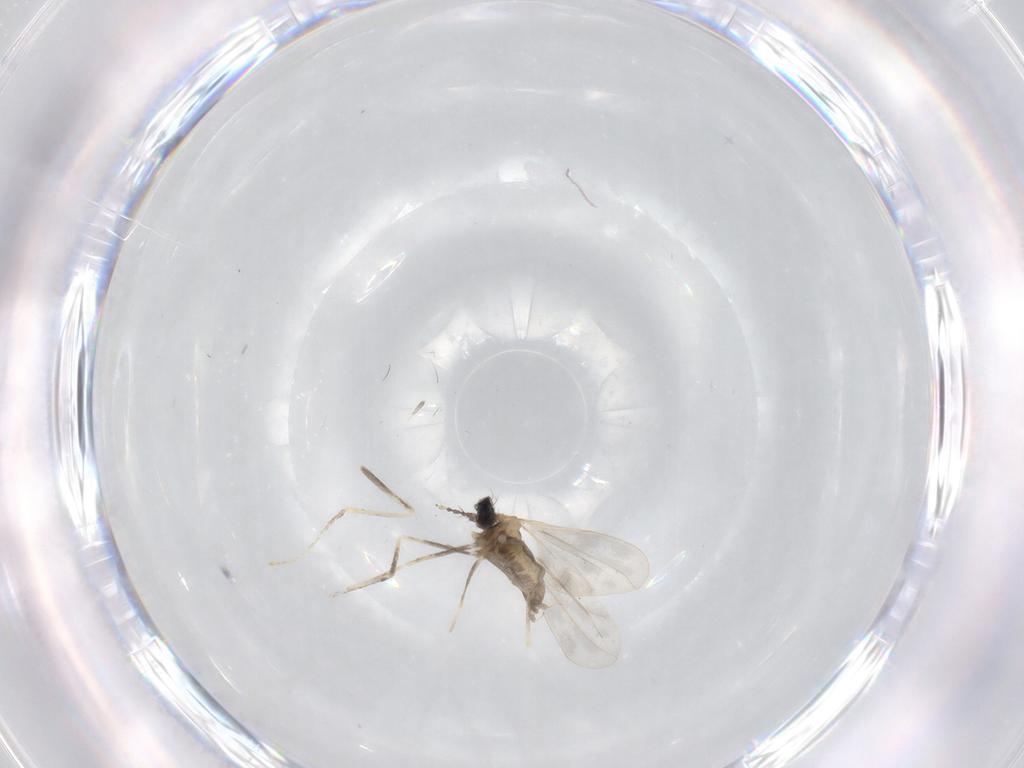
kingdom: Animalia
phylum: Arthropoda
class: Insecta
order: Diptera
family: Cecidomyiidae
